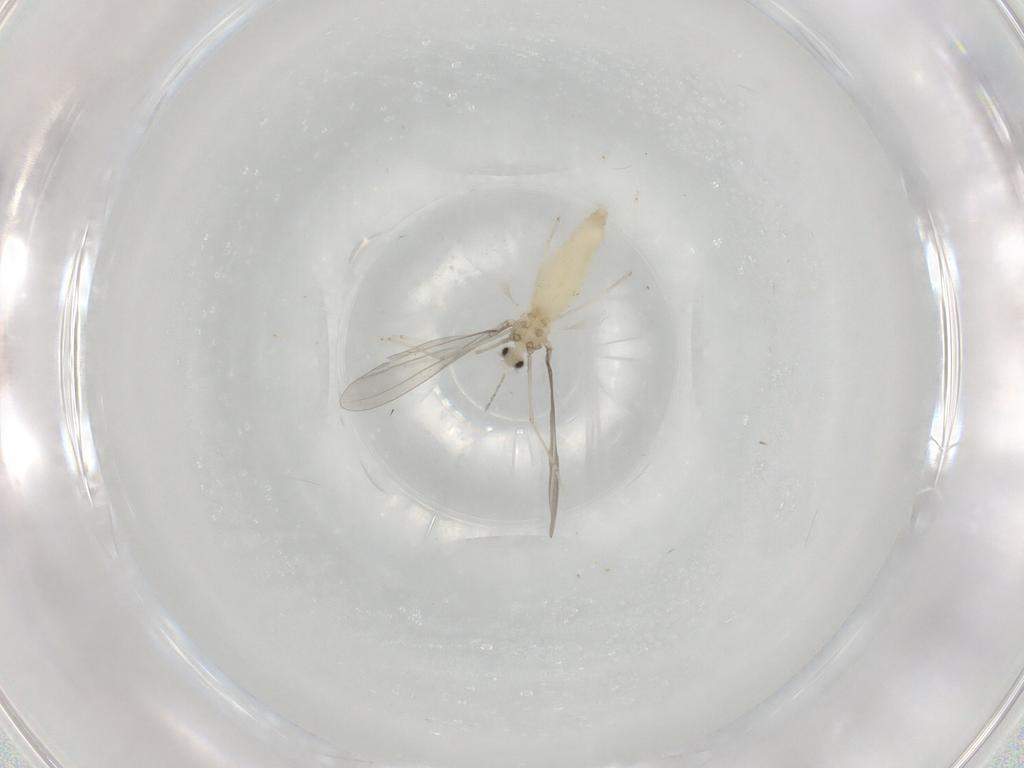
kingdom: Animalia
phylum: Arthropoda
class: Insecta
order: Diptera
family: Cecidomyiidae
